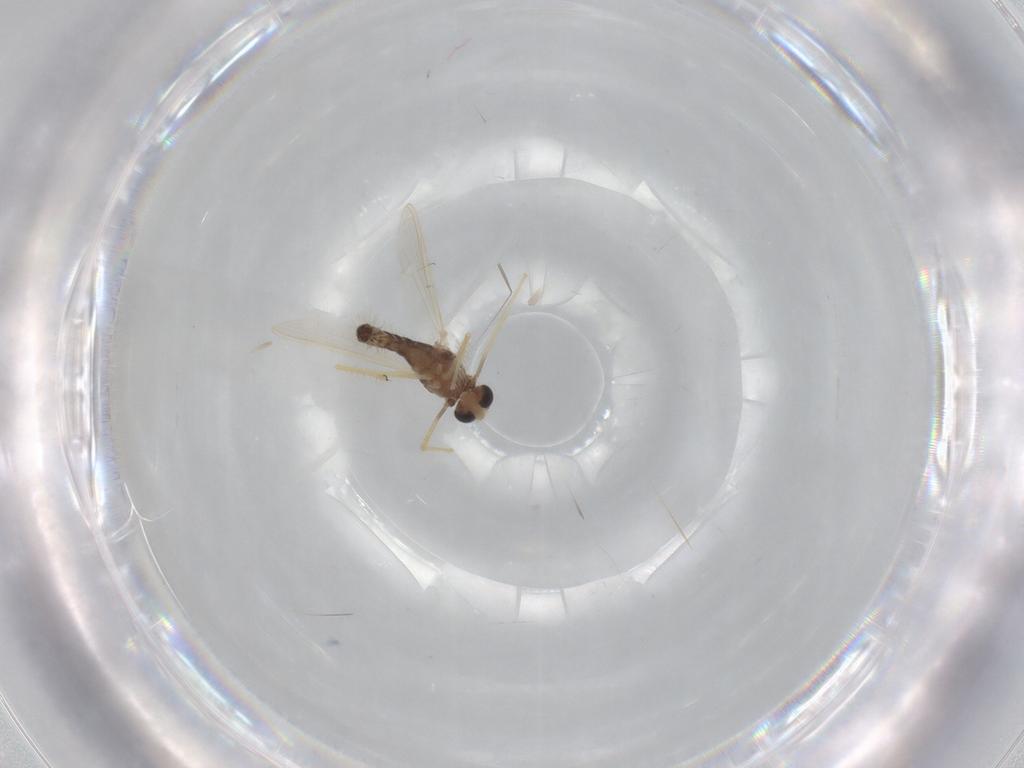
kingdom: Animalia
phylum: Arthropoda
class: Insecta
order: Diptera
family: Chironomidae
